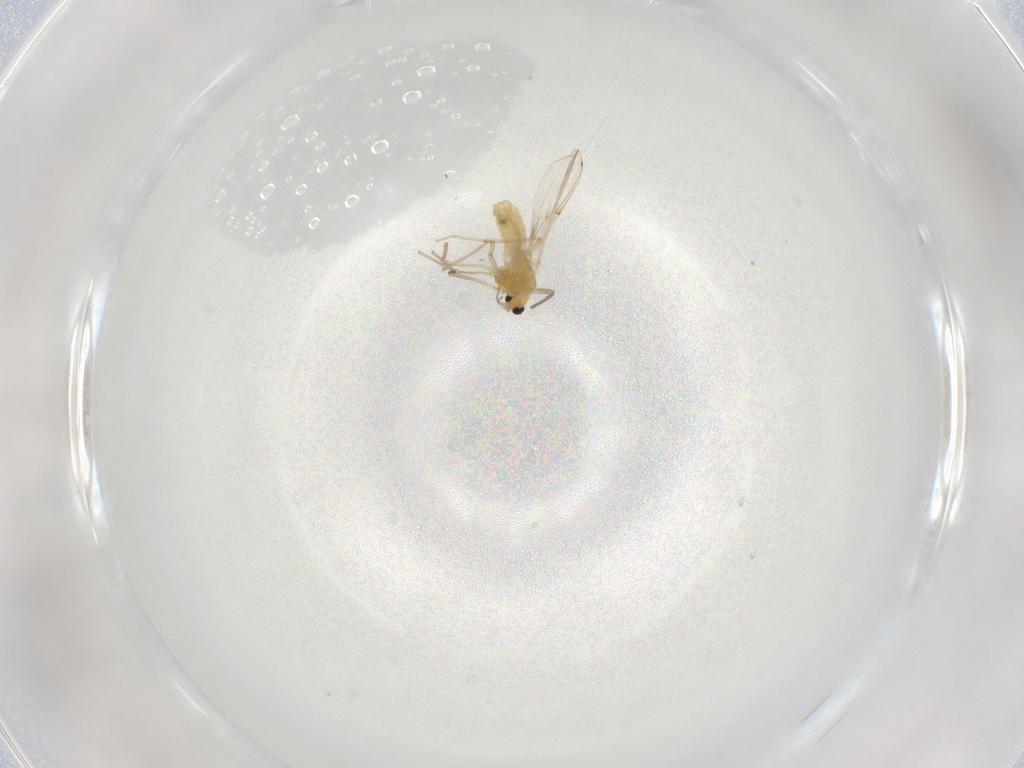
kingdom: Animalia
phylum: Arthropoda
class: Insecta
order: Diptera
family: Chironomidae
